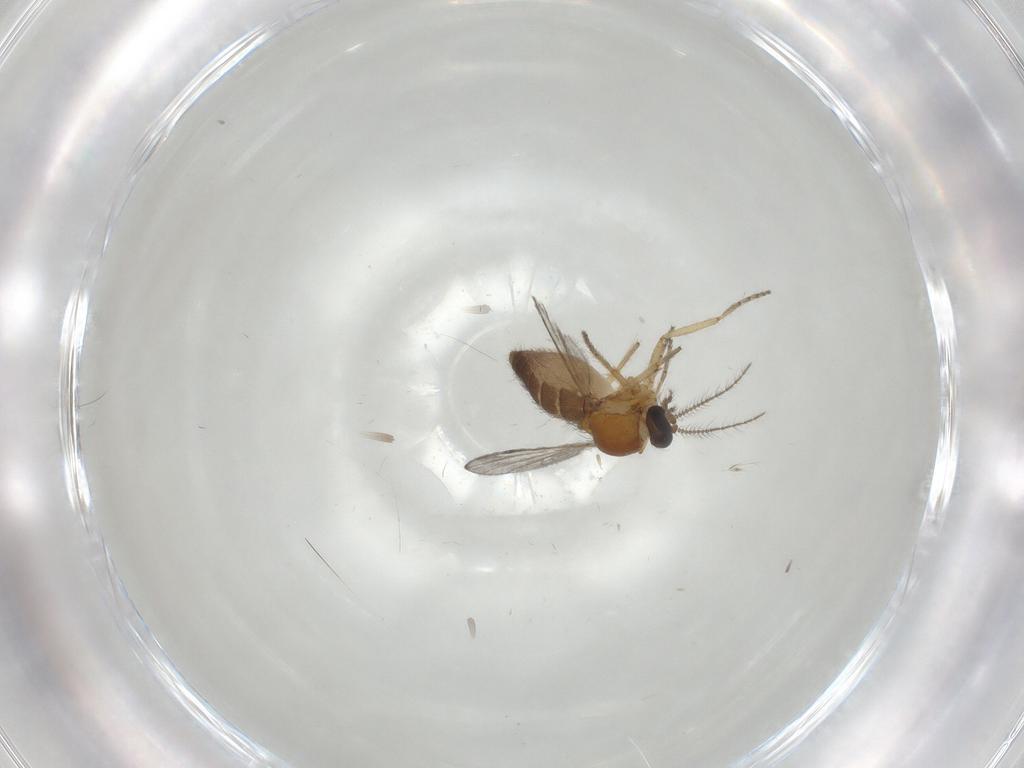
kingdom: Animalia
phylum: Arthropoda
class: Insecta
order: Diptera
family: Ceratopogonidae
